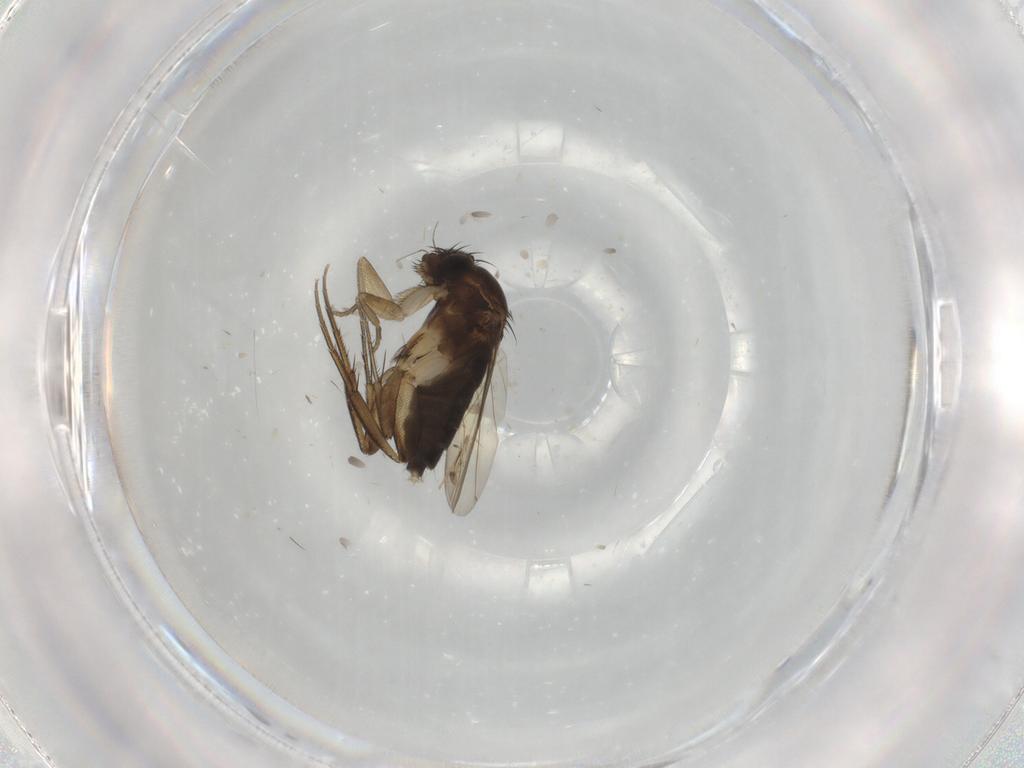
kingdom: Animalia
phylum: Arthropoda
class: Insecta
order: Diptera
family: Phoridae
